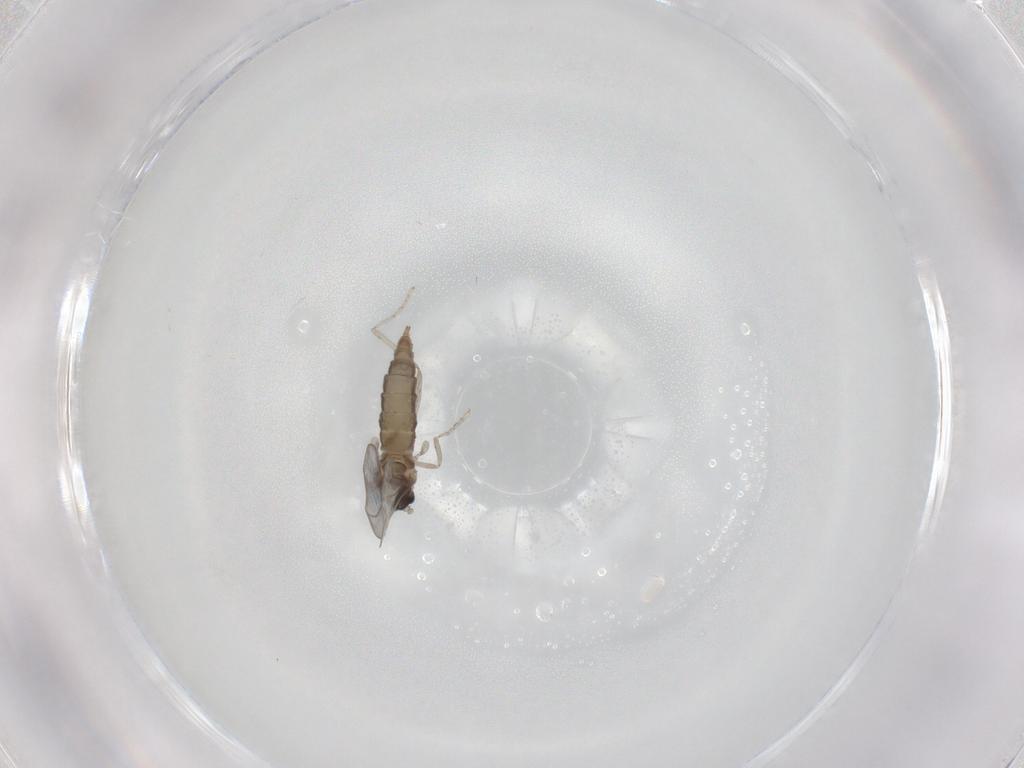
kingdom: Animalia
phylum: Arthropoda
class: Insecta
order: Diptera
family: Cecidomyiidae
